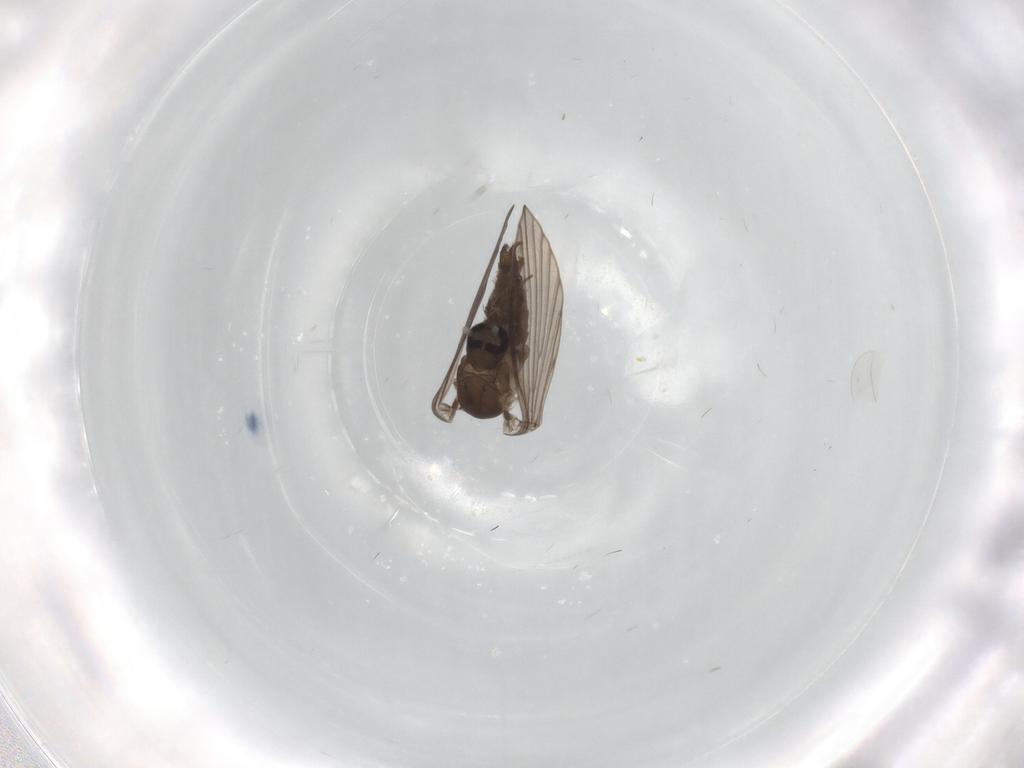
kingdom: Animalia
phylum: Arthropoda
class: Insecta
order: Diptera
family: Psychodidae
